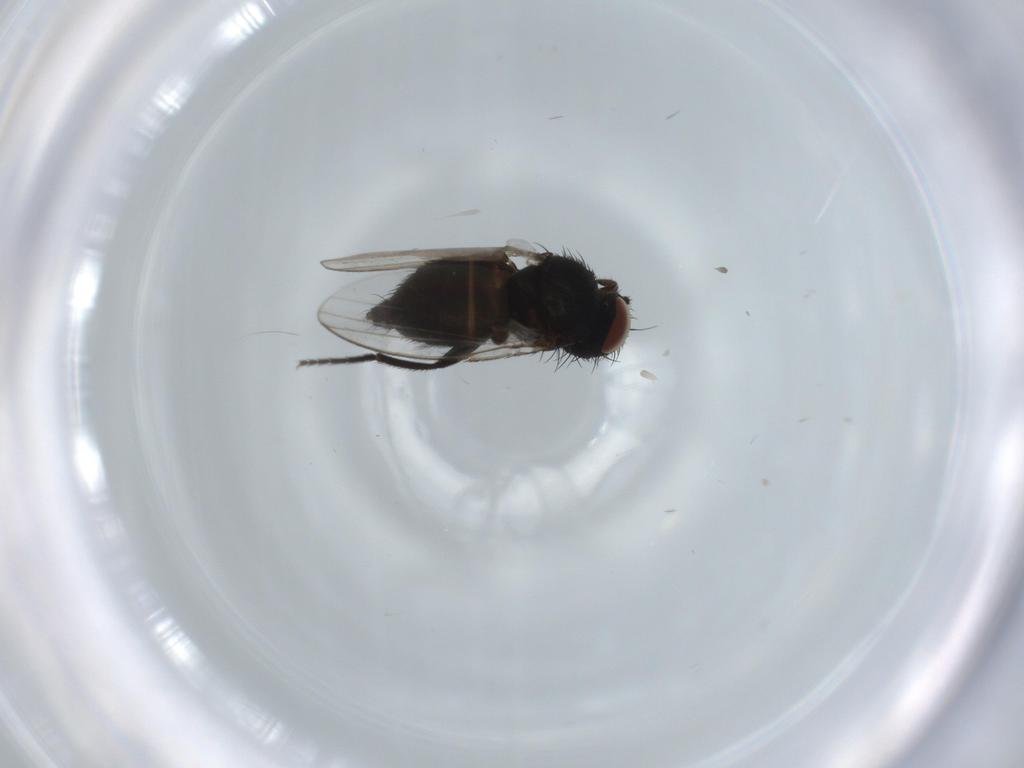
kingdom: Animalia
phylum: Arthropoda
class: Insecta
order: Diptera
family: Milichiidae
